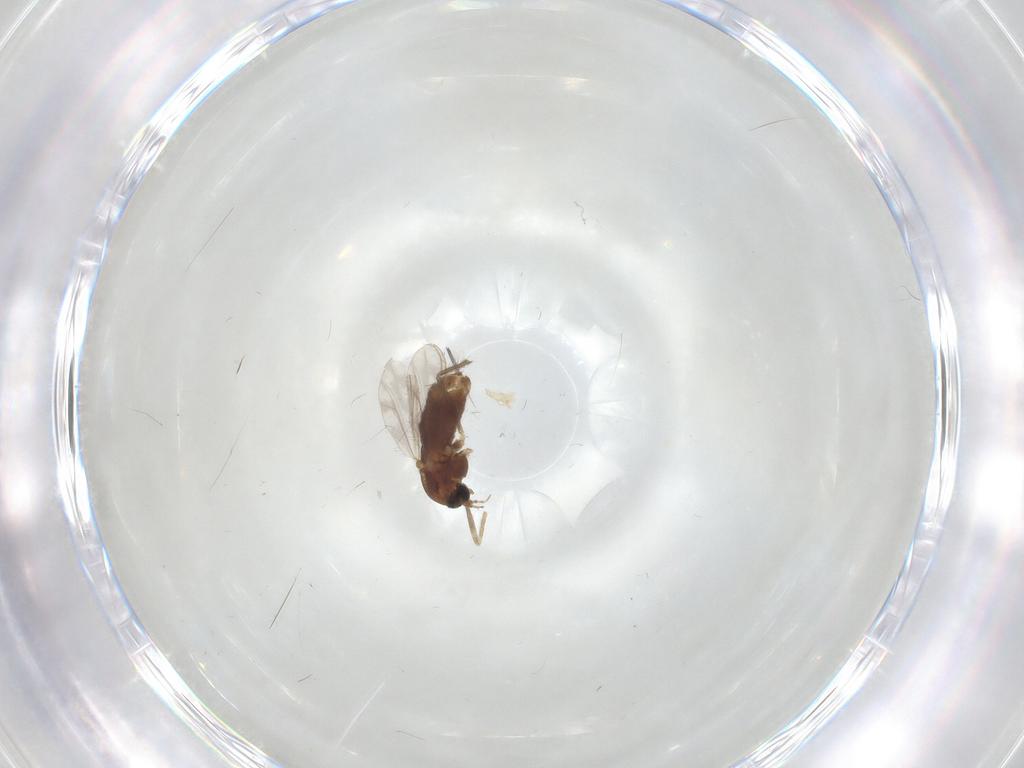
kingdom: Animalia
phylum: Arthropoda
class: Insecta
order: Diptera
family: Chironomidae
